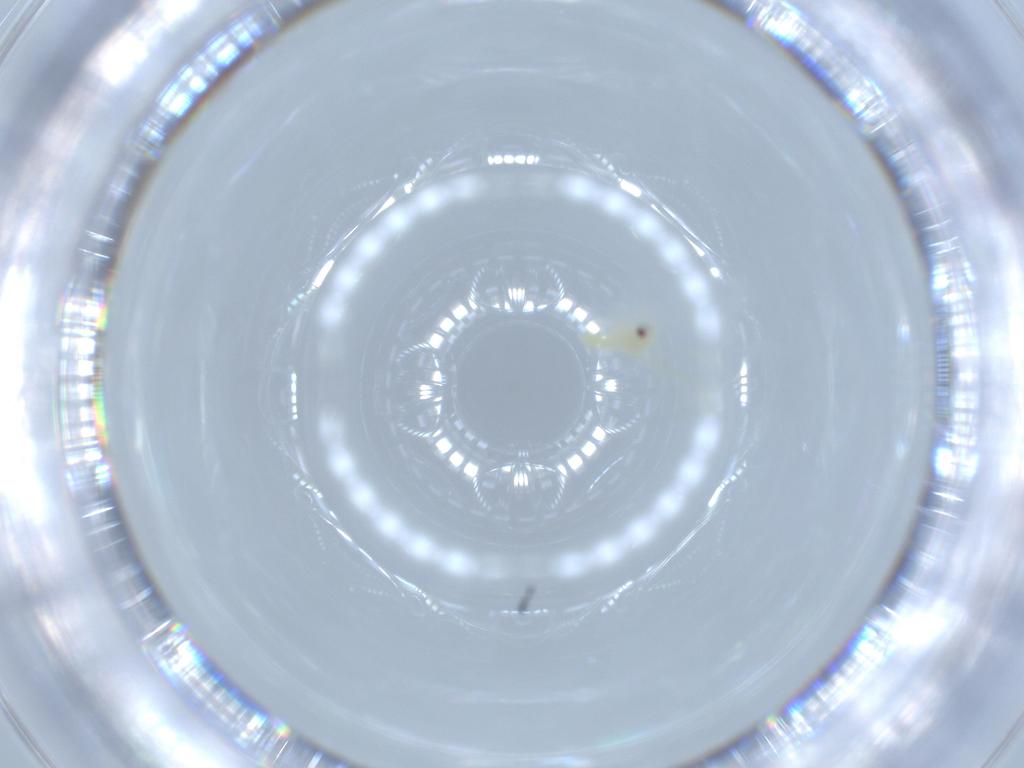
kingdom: Animalia
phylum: Arthropoda
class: Insecta
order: Hemiptera
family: Aleyrodidae
